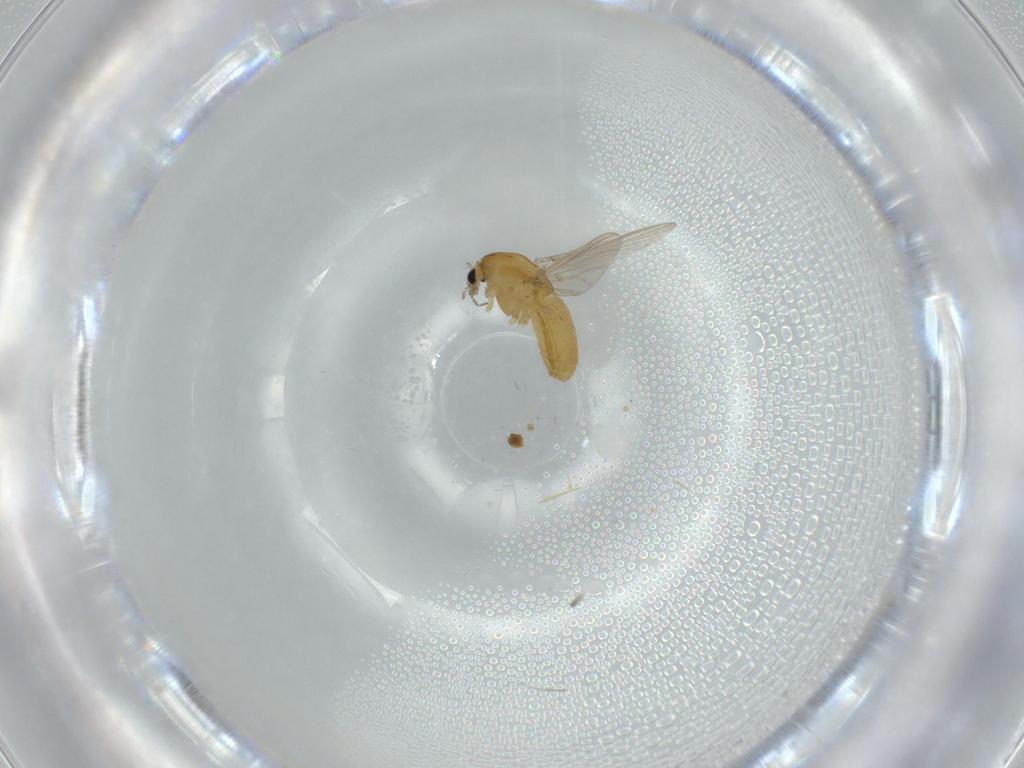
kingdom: Animalia
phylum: Arthropoda
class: Insecta
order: Diptera
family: Chironomidae
